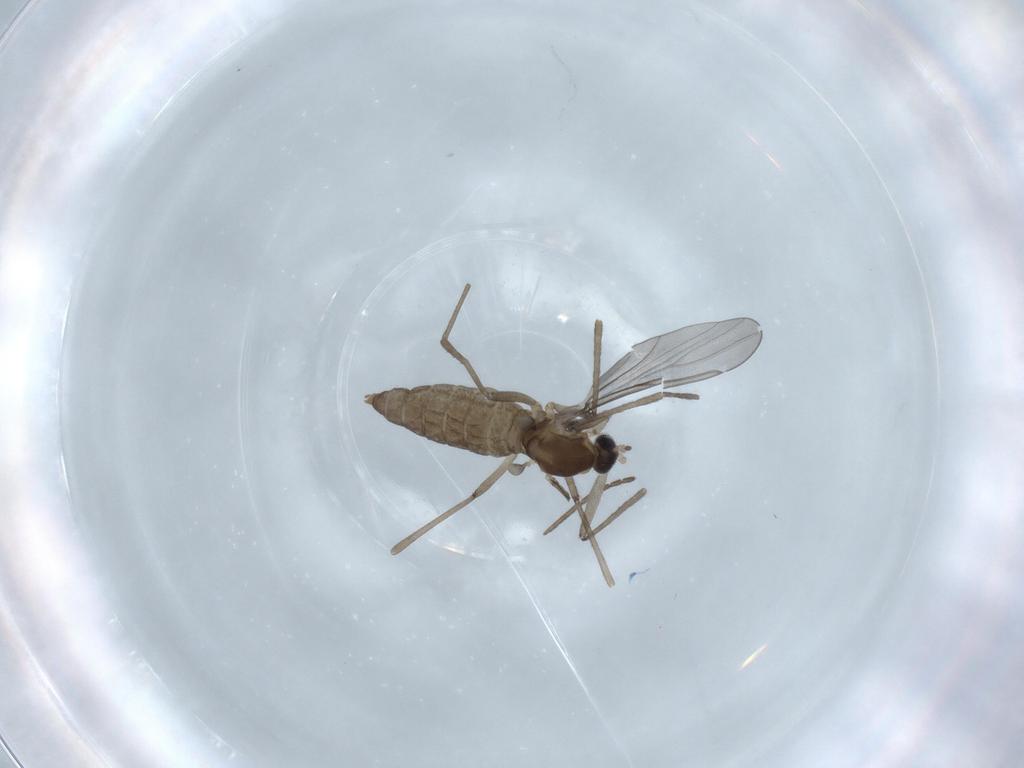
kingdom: Animalia
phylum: Arthropoda
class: Insecta
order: Diptera
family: Cecidomyiidae
